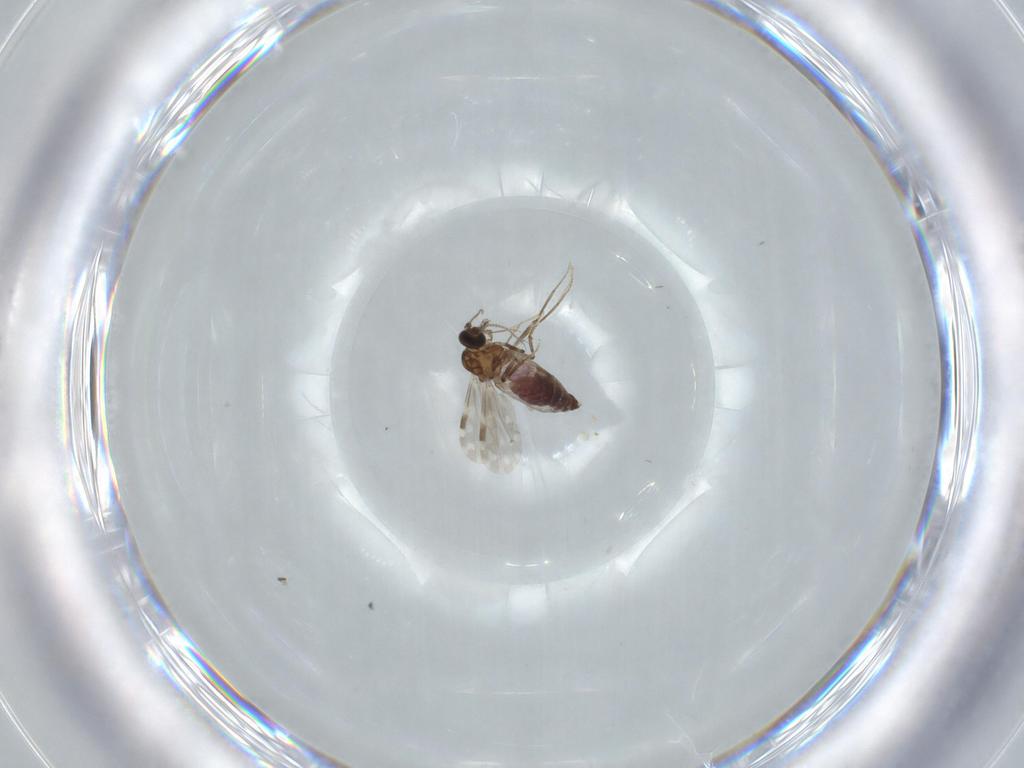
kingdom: Animalia
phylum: Arthropoda
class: Insecta
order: Diptera
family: Ceratopogonidae
